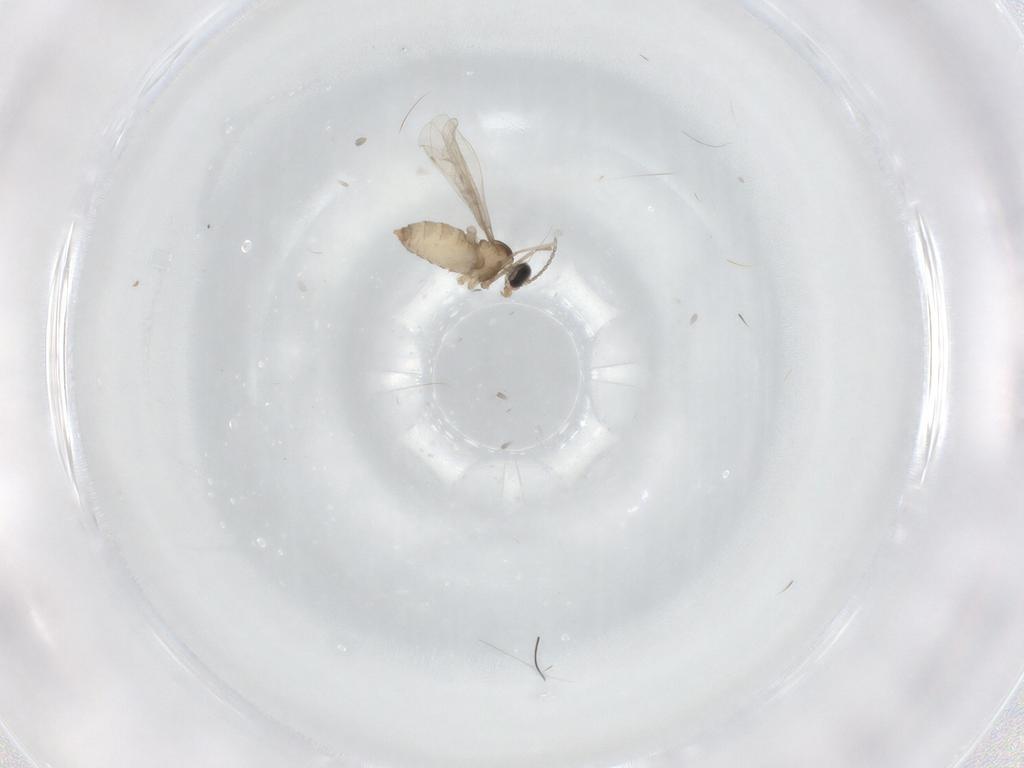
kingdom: Animalia
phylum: Arthropoda
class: Insecta
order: Diptera
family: Cecidomyiidae
